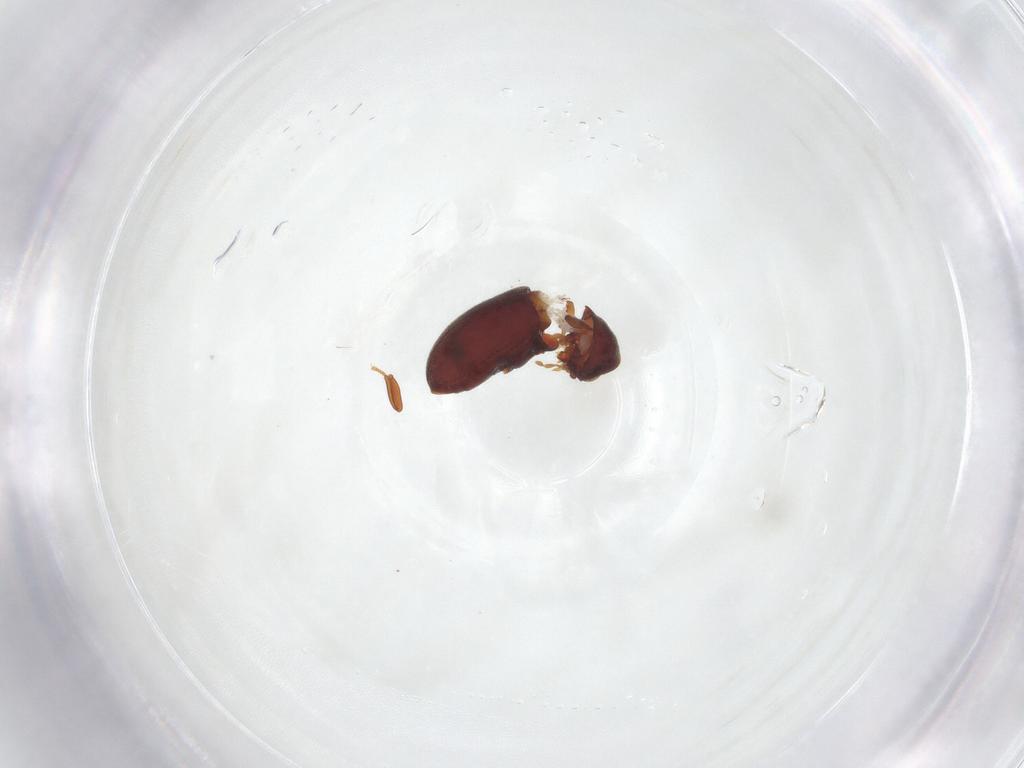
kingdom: Animalia
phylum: Arthropoda
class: Insecta
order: Coleoptera
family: Ptinidae
